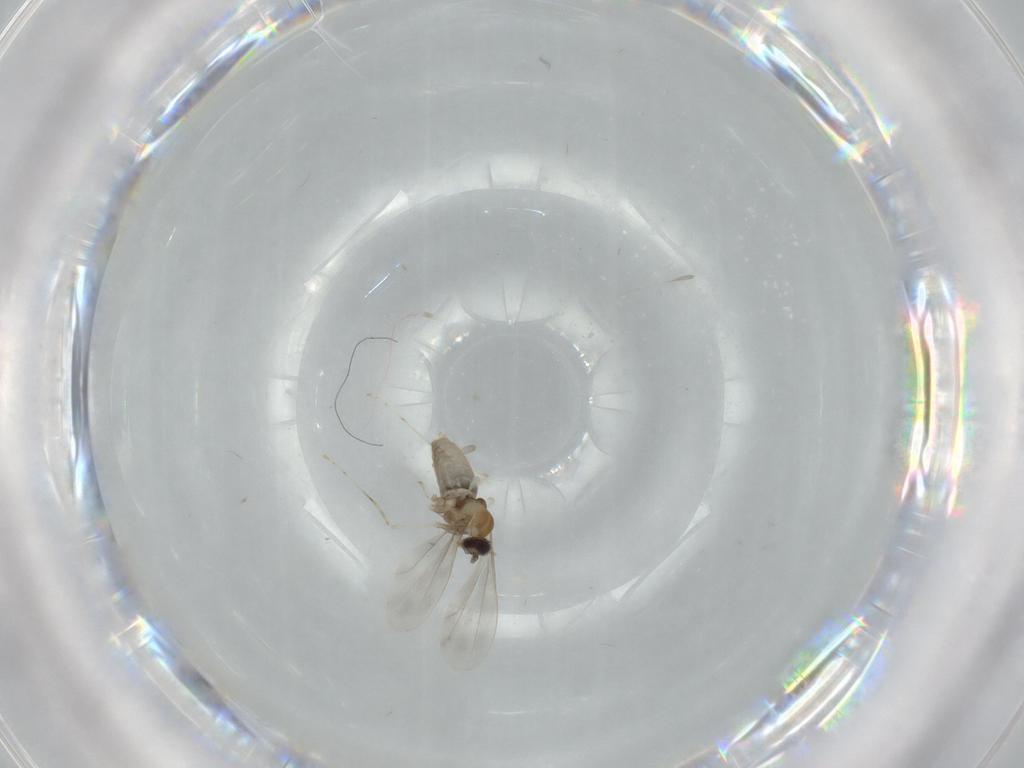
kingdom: Animalia
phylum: Arthropoda
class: Insecta
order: Diptera
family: Cecidomyiidae
